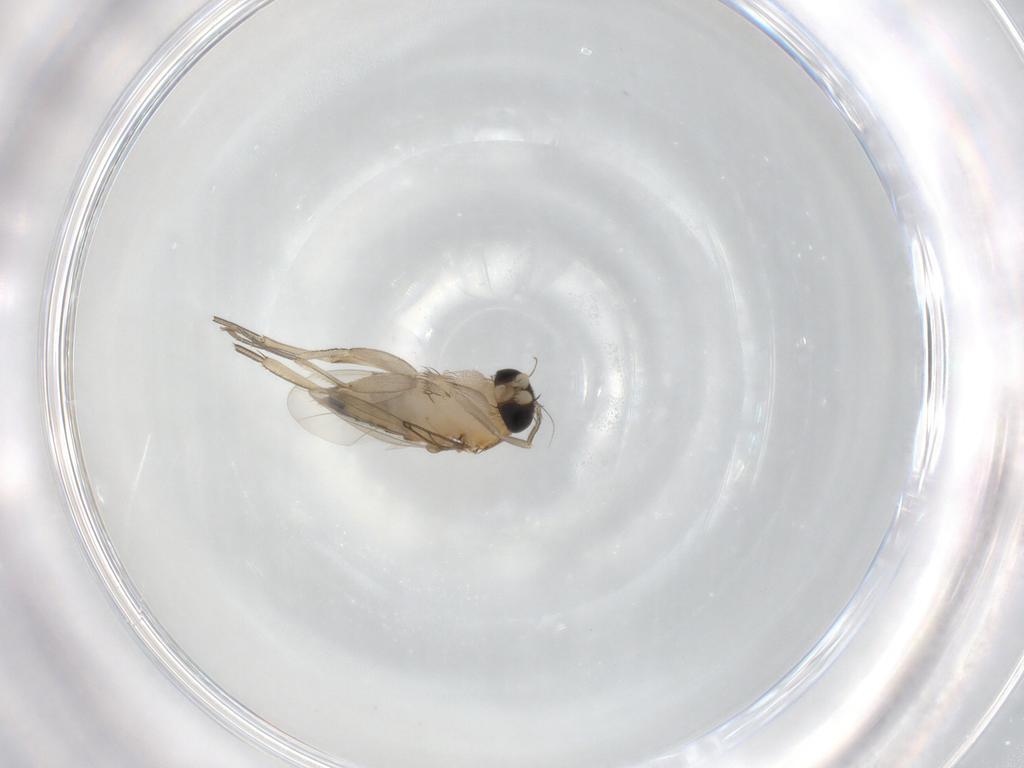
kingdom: Animalia
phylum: Arthropoda
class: Insecta
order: Diptera
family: Phoridae
